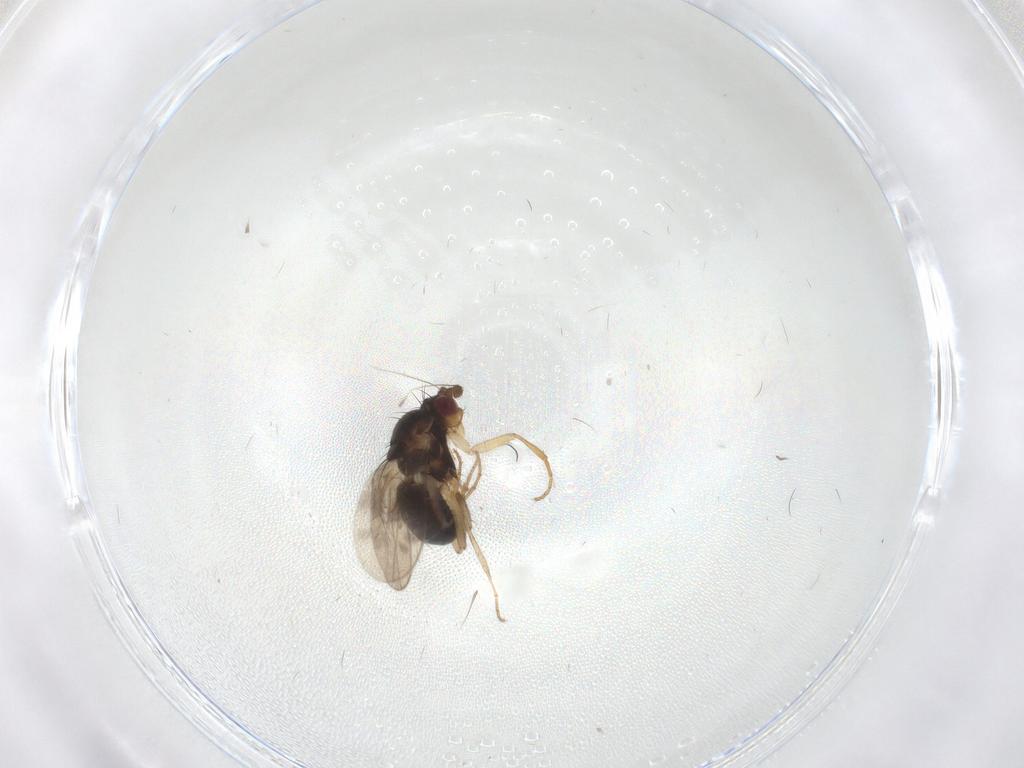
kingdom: Animalia
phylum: Arthropoda
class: Insecta
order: Diptera
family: Sphaeroceridae
